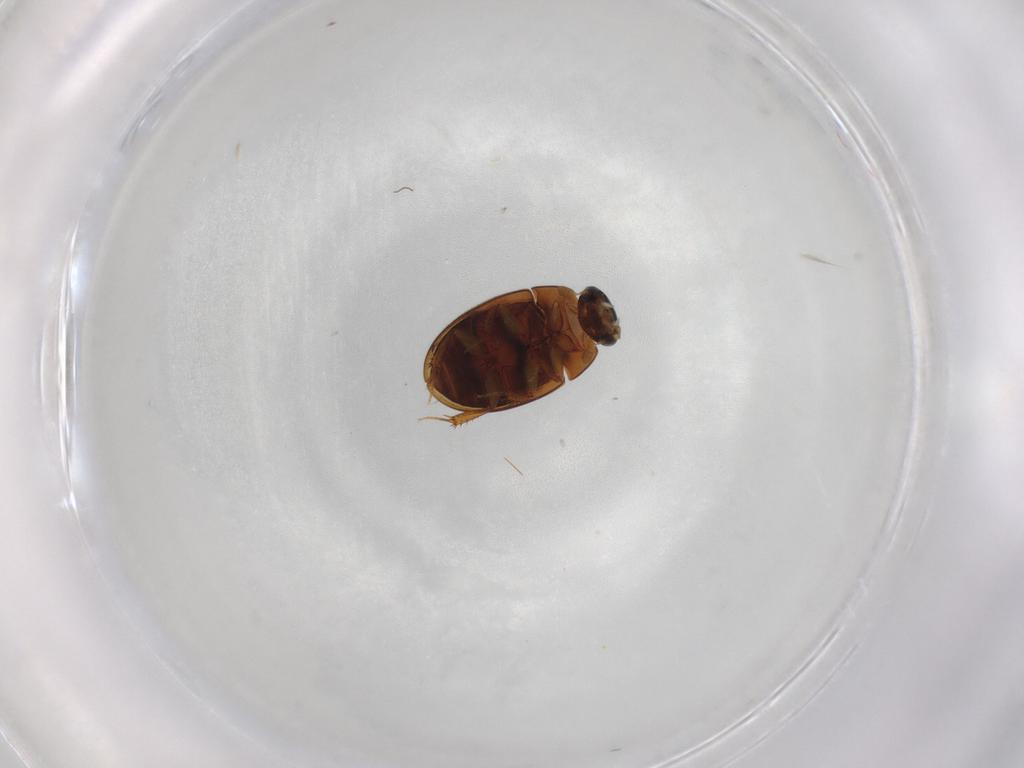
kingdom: Animalia
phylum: Arthropoda
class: Insecta
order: Coleoptera
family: Hydrophilidae
